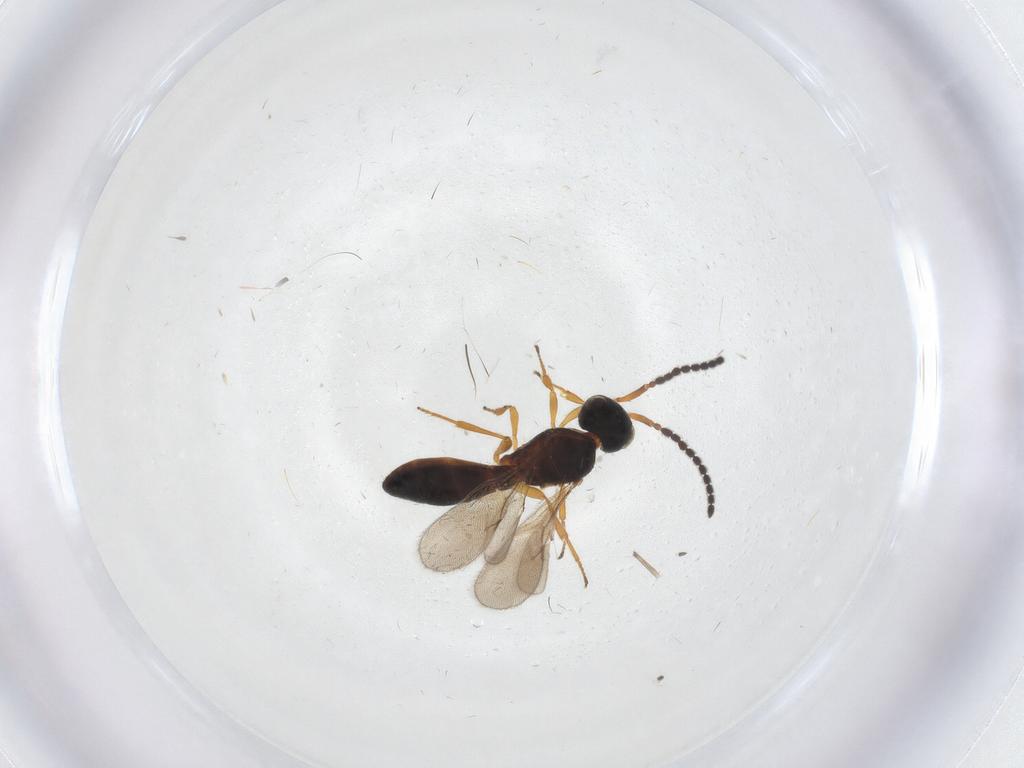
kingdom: Animalia
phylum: Arthropoda
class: Insecta
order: Hymenoptera
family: Scelionidae
